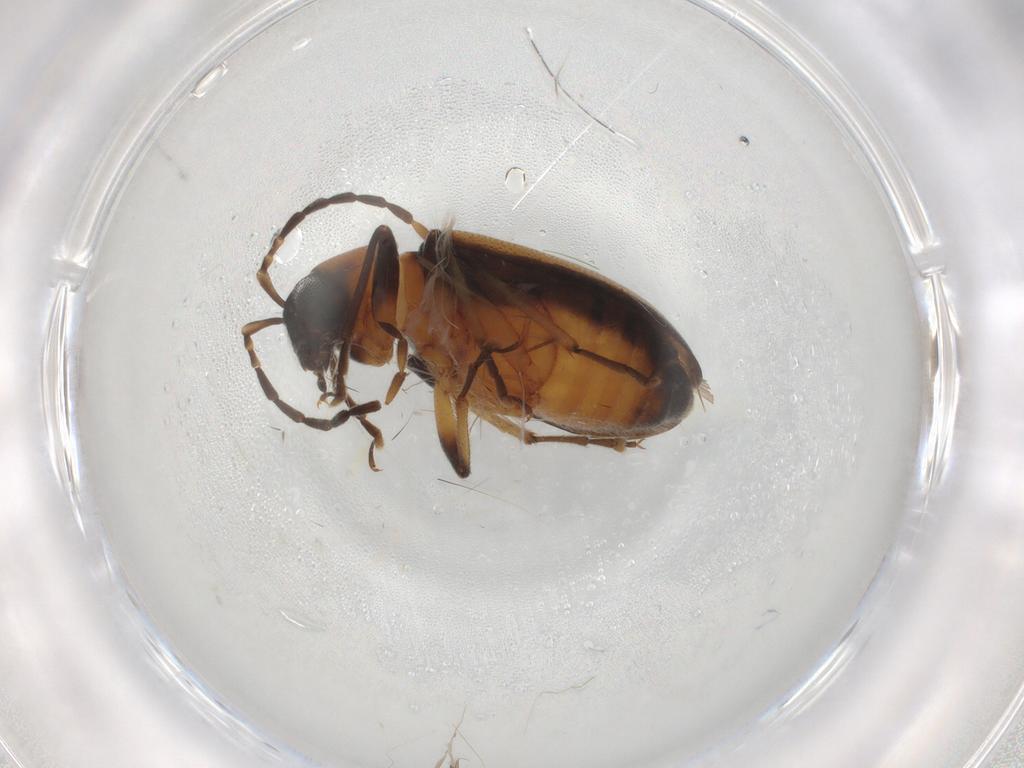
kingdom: Animalia
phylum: Arthropoda
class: Insecta
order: Coleoptera
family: Chrysomelidae
